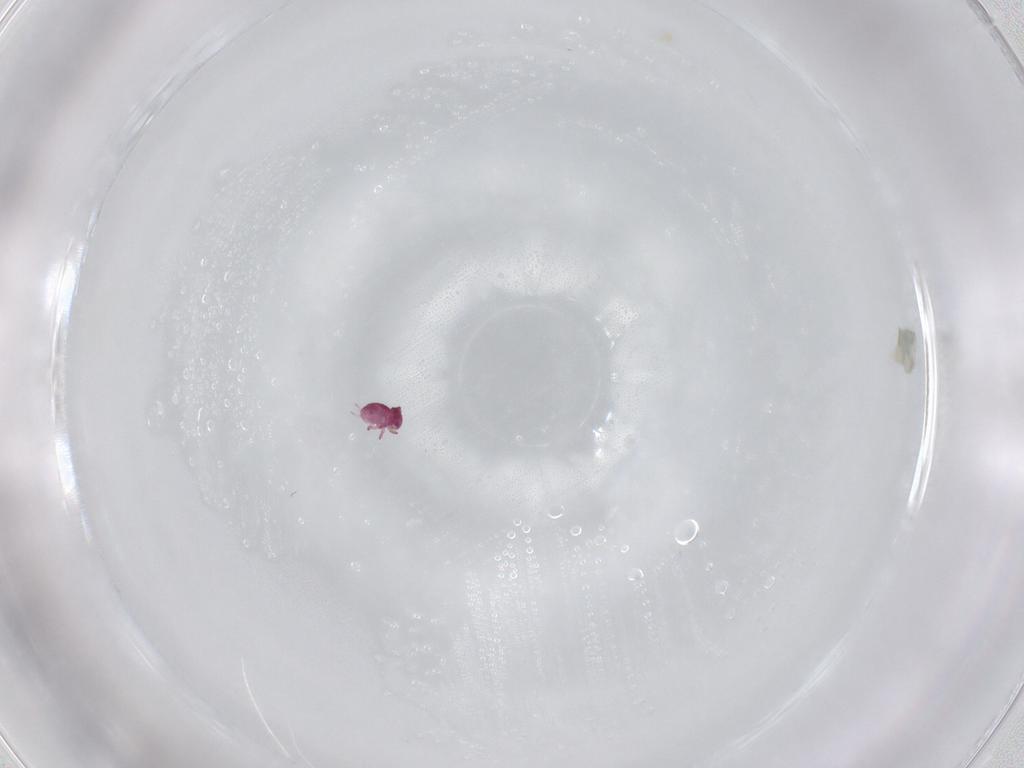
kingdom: Animalia
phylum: Arthropoda
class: Collembola
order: Symphypleona
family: Sminthurididae
